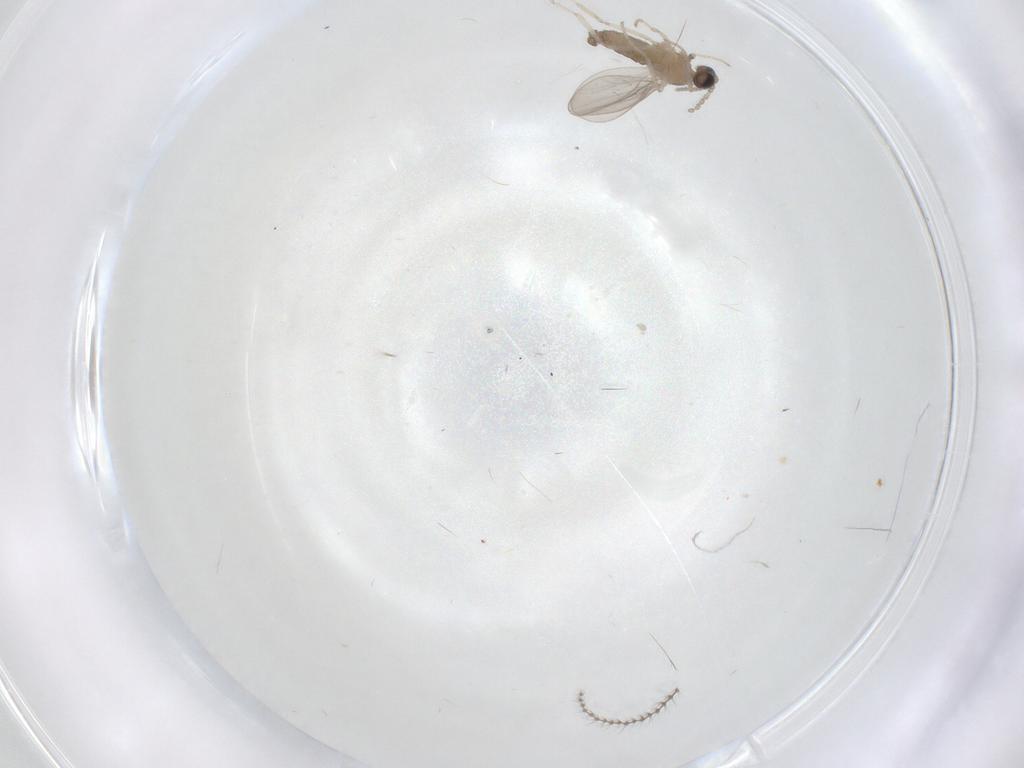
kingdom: Animalia
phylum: Arthropoda
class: Insecta
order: Diptera
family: Cecidomyiidae
